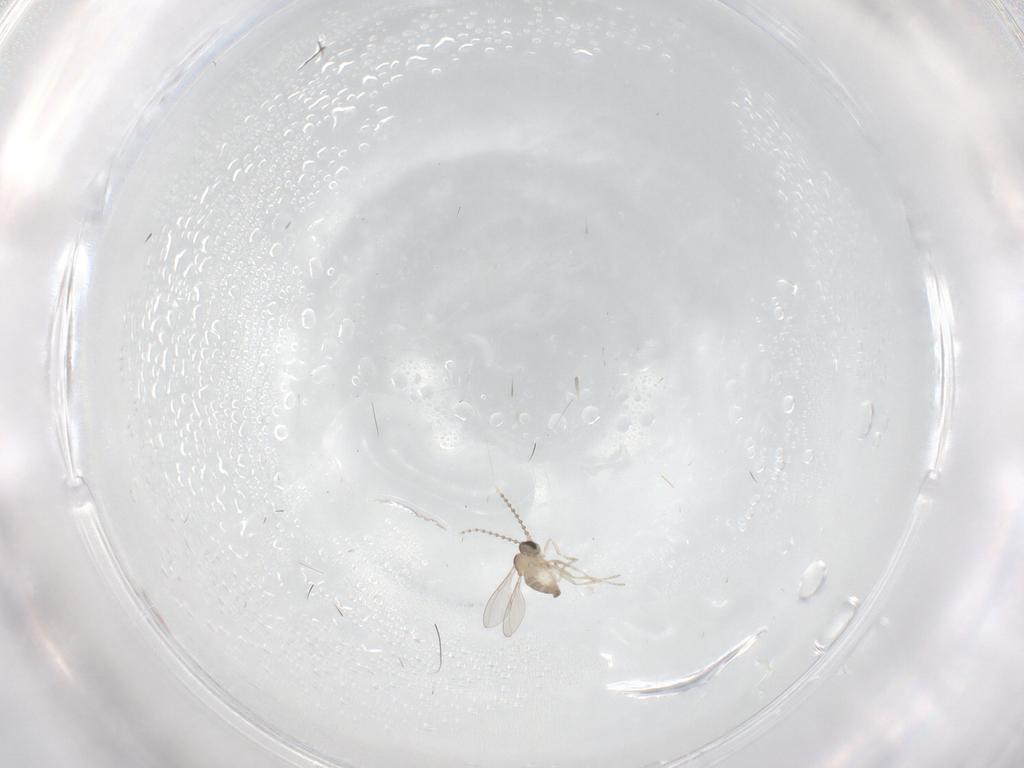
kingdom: Animalia
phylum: Arthropoda
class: Insecta
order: Diptera
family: Cecidomyiidae
